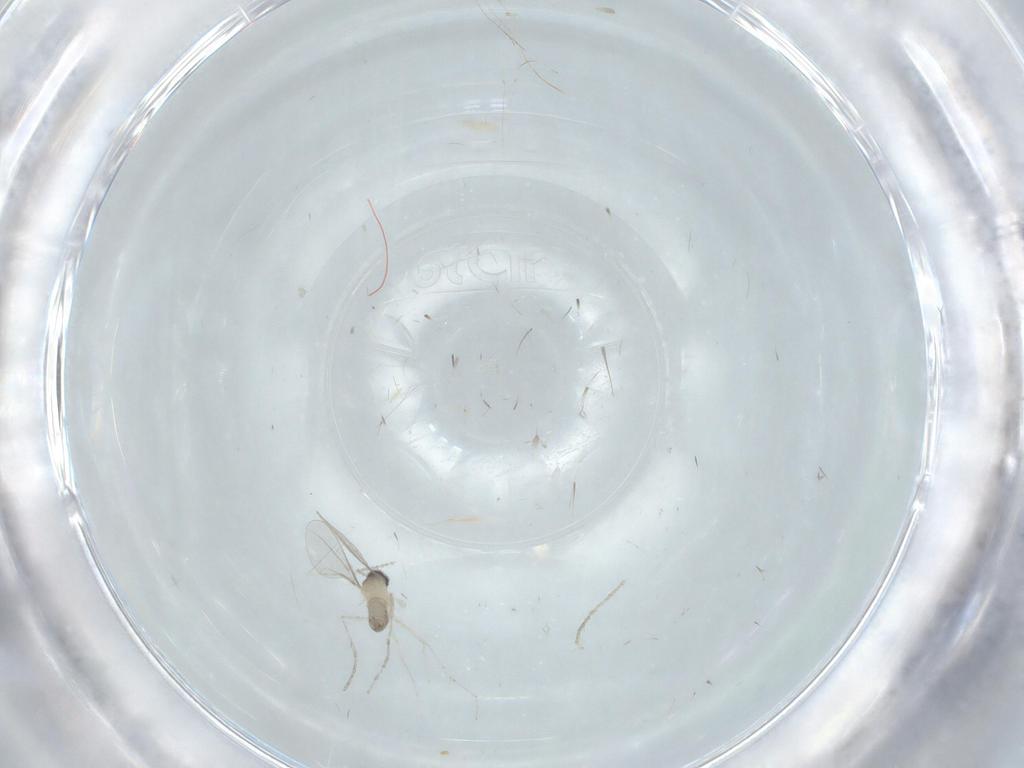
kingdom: Animalia
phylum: Arthropoda
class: Insecta
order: Diptera
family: Cecidomyiidae
